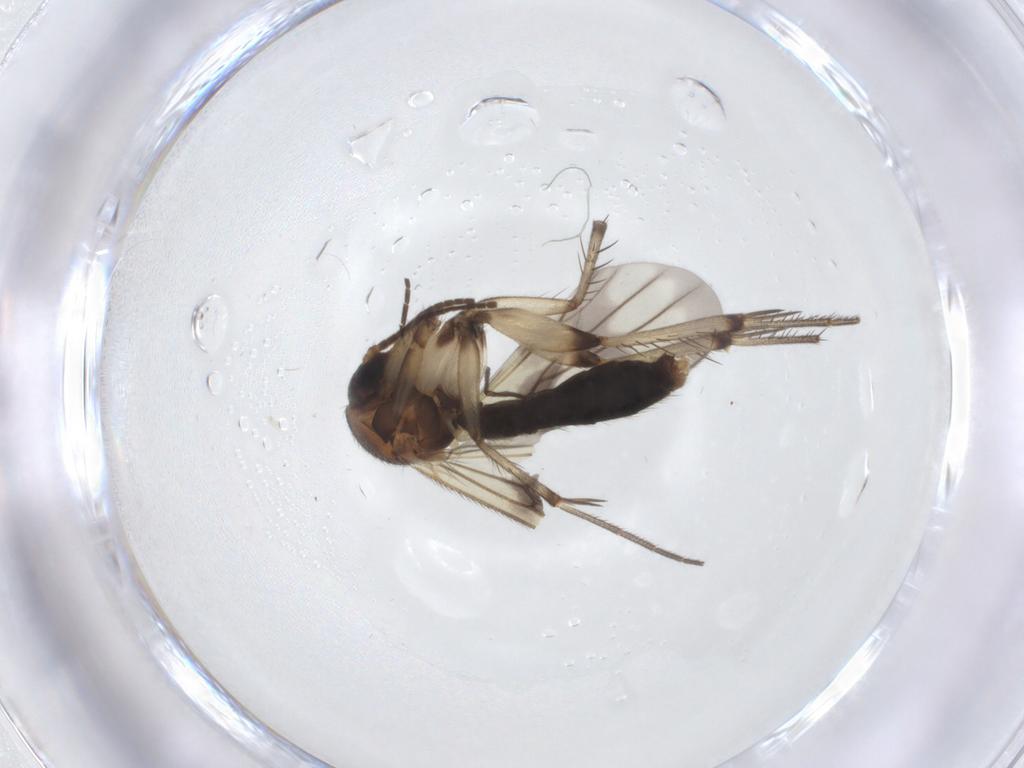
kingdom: Animalia
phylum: Arthropoda
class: Insecta
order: Diptera
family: Mycetophilidae
